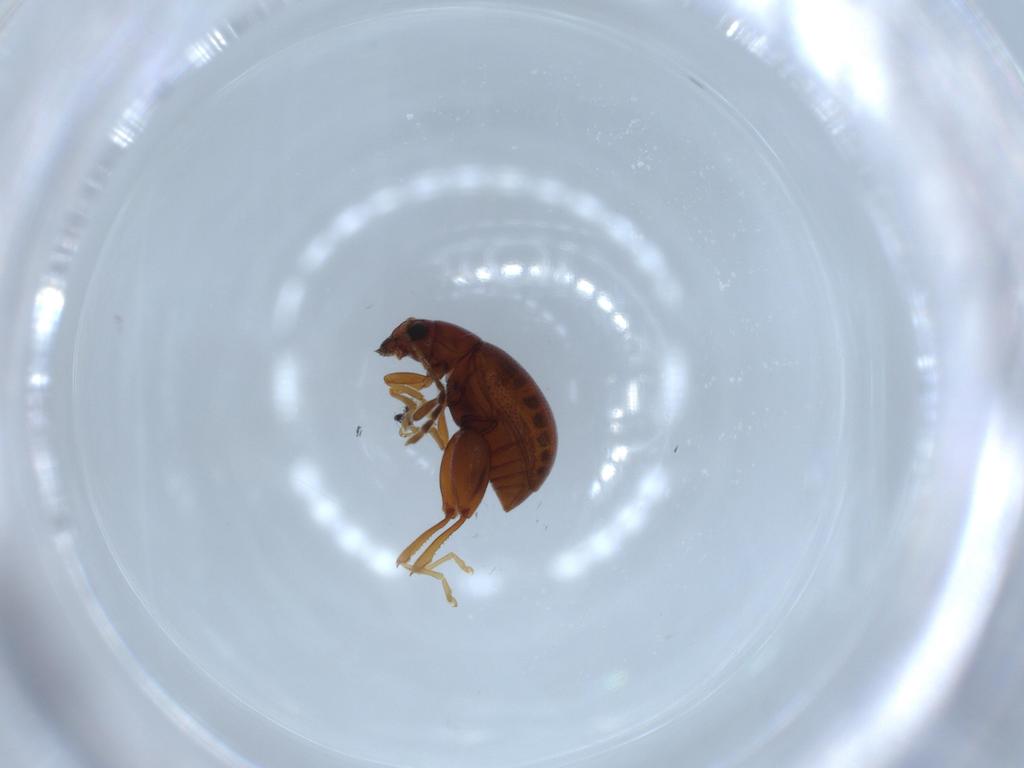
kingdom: Animalia
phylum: Arthropoda
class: Insecta
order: Coleoptera
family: Chrysomelidae
